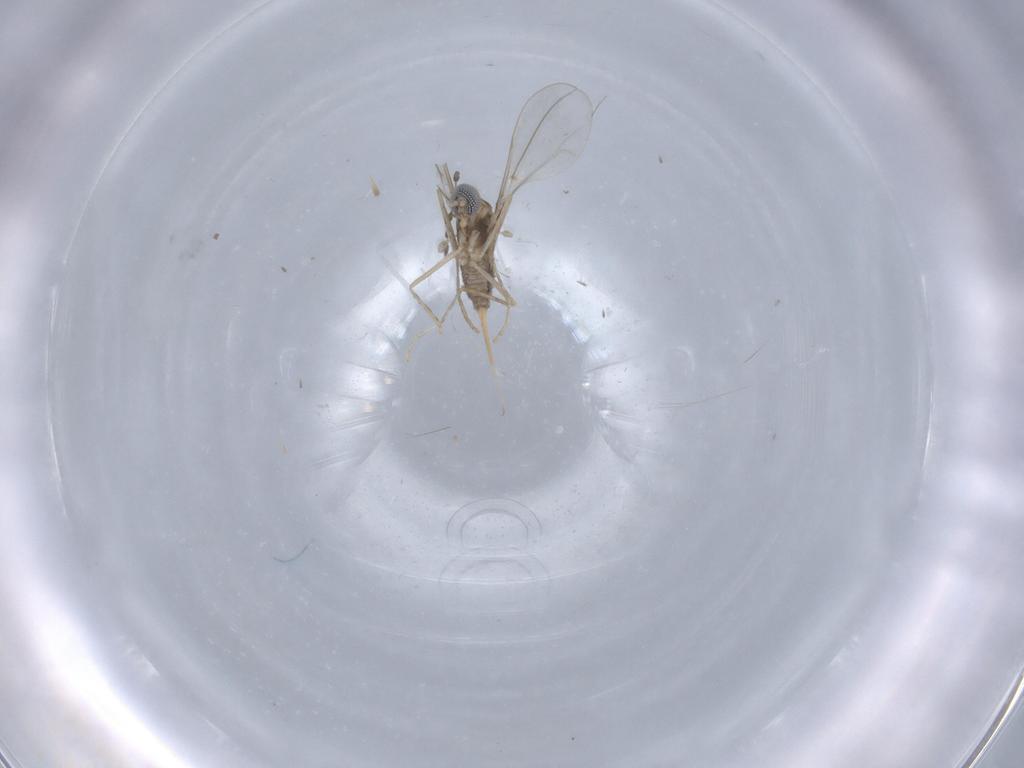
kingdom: Animalia
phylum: Arthropoda
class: Insecta
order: Diptera
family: Cecidomyiidae
